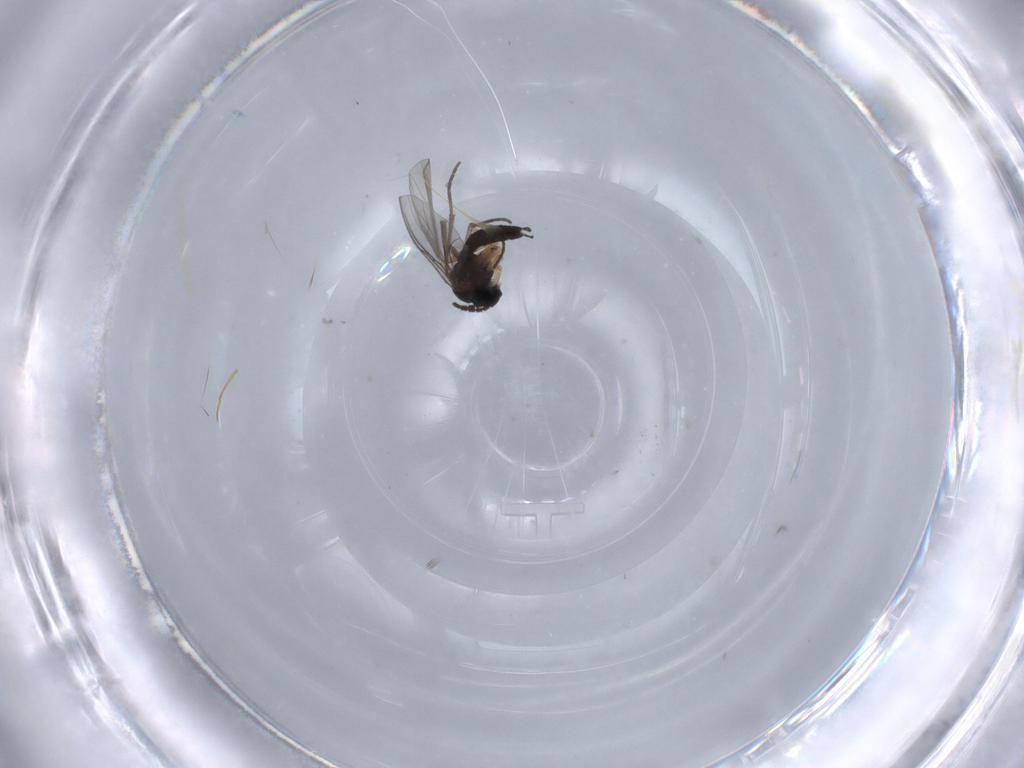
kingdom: Animalia
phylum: Arthropoda
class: Insecta
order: Diptera
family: Sciaridae
